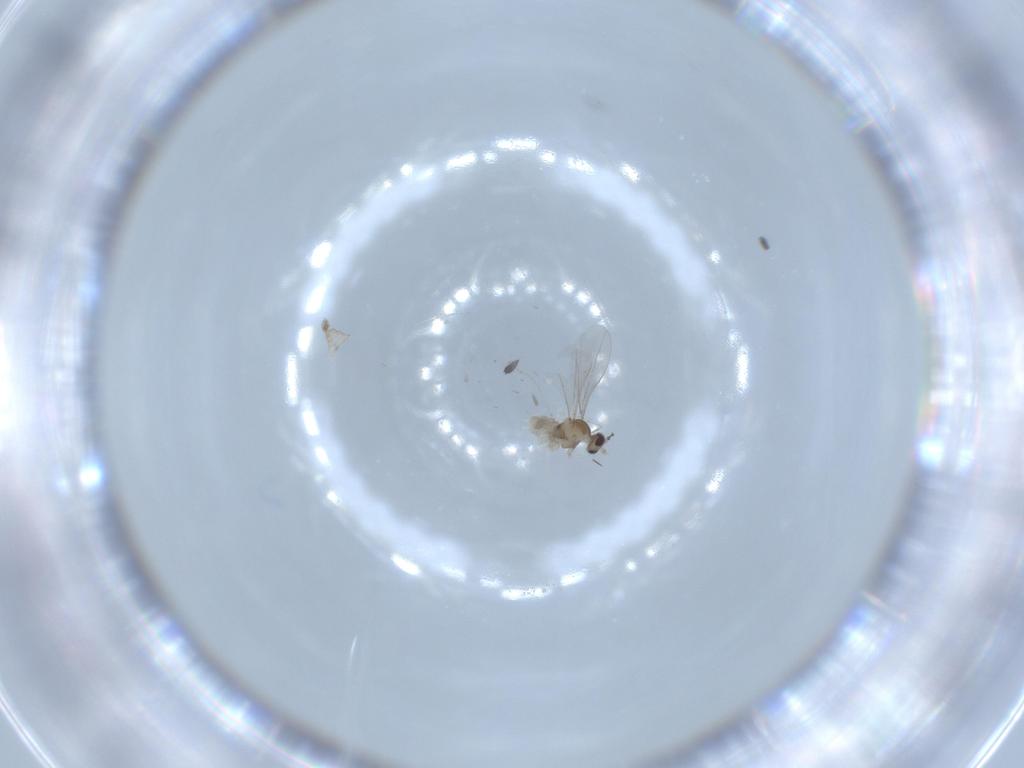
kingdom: Animalia
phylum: Arthropoda
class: Insecta
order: Diptera
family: Cecidomyiidae
